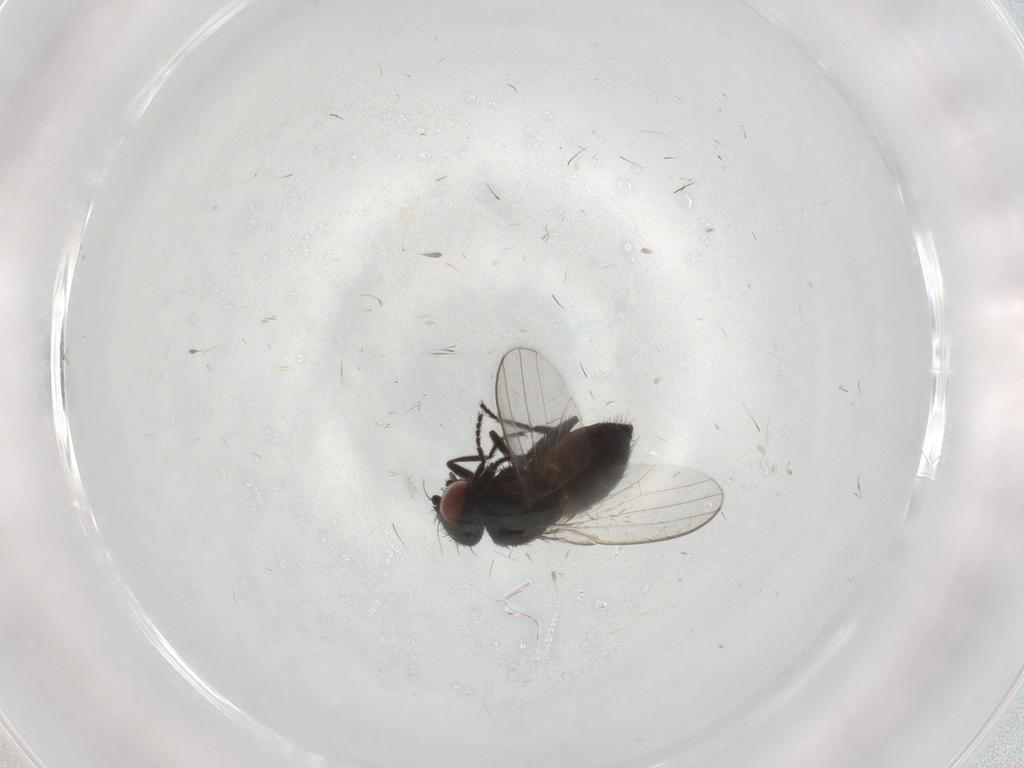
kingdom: Animalia
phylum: Arthropoda
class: Insecta
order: Diptera
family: Milichiidae
